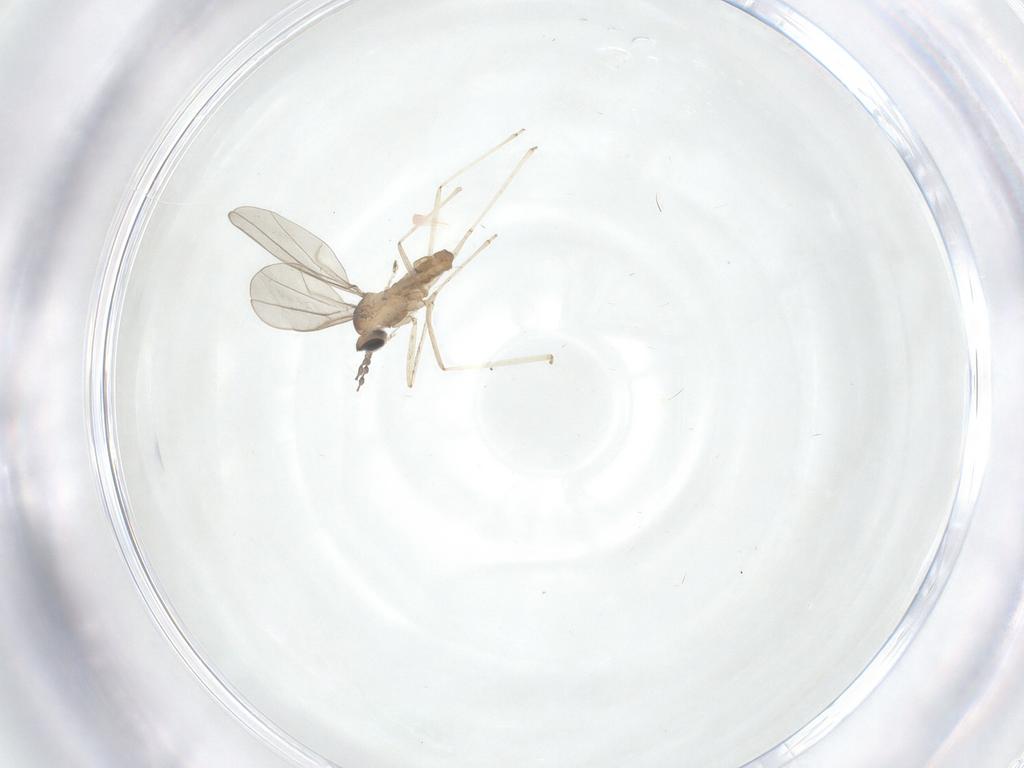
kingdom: Animalia
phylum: Arthropoda
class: Insecta
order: Diptera
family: Cecidomyiidae
